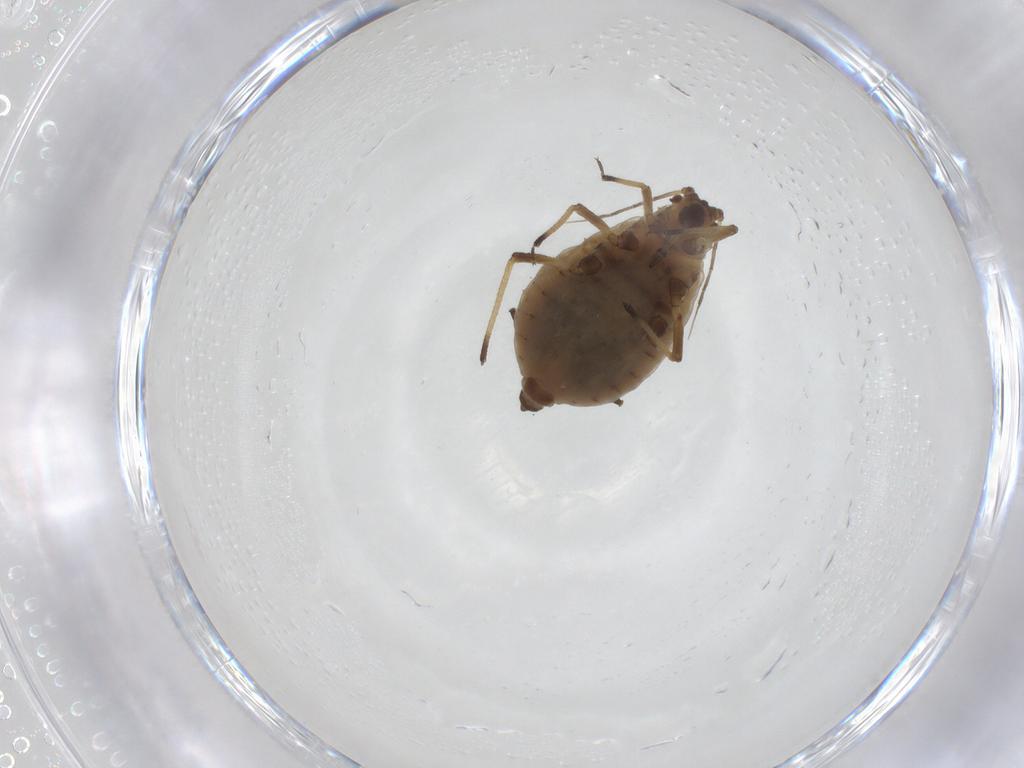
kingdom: Animalia
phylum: Arthropoda
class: Insecta
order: Hemiptera
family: Aphididae
